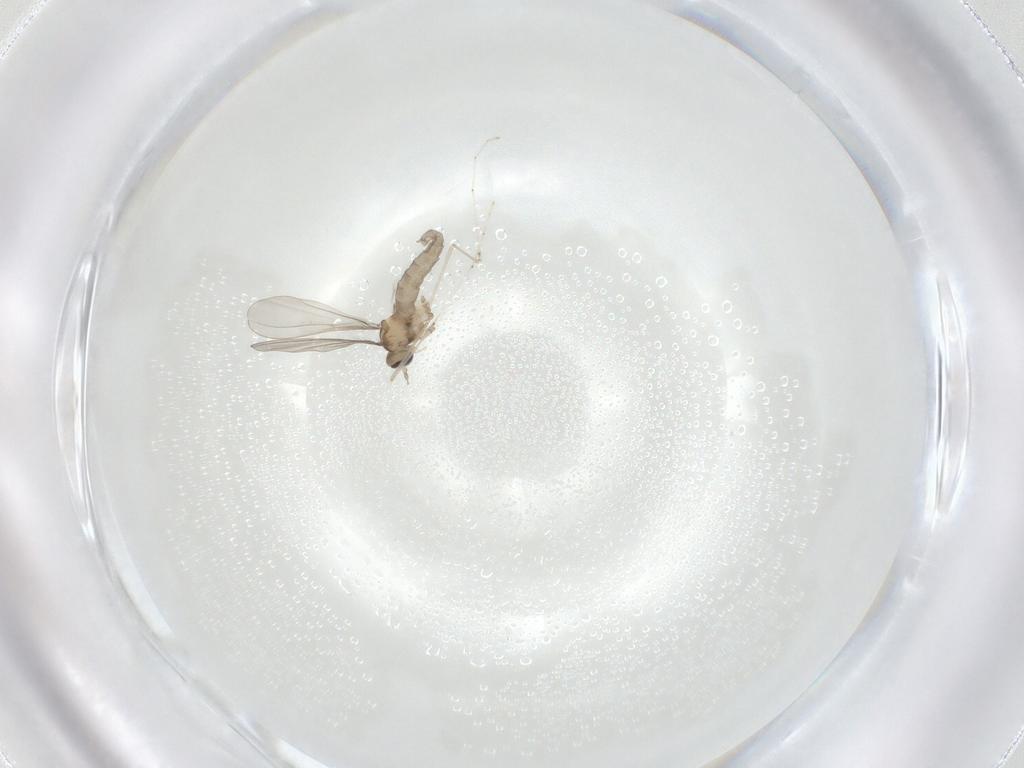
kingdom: Animalia
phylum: Arthropoda
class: Insecta
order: Diptera
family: Cecidomyiidae
